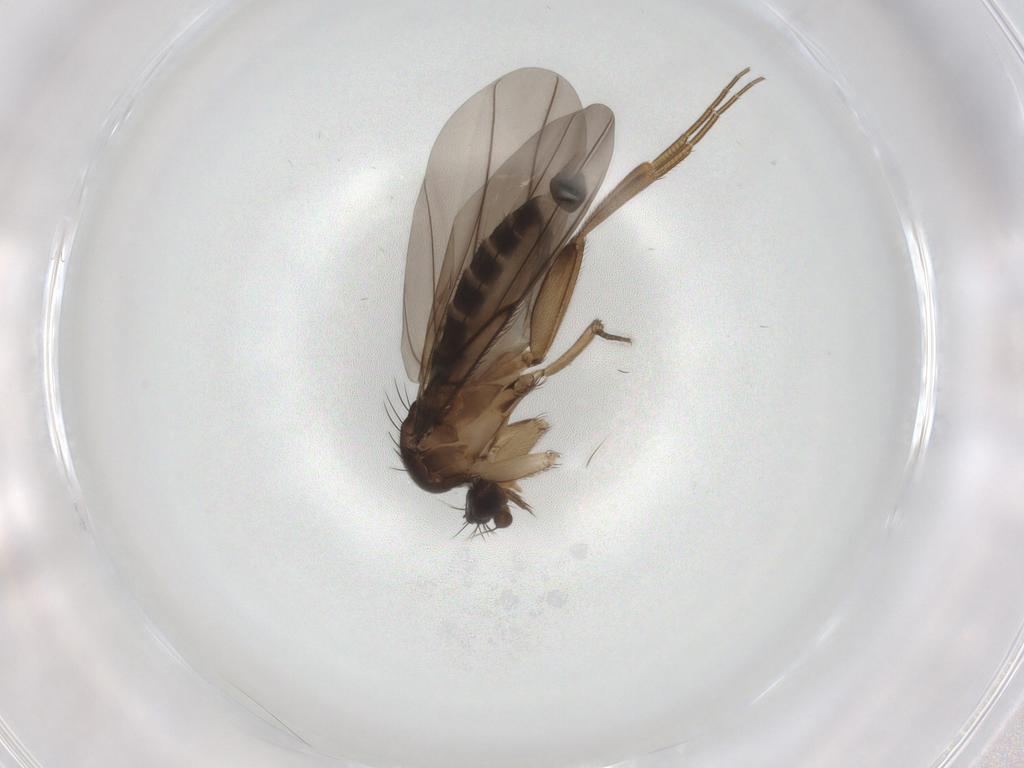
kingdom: Animalia
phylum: Arthropoda
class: Insecta
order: Diptera
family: Phoridae
